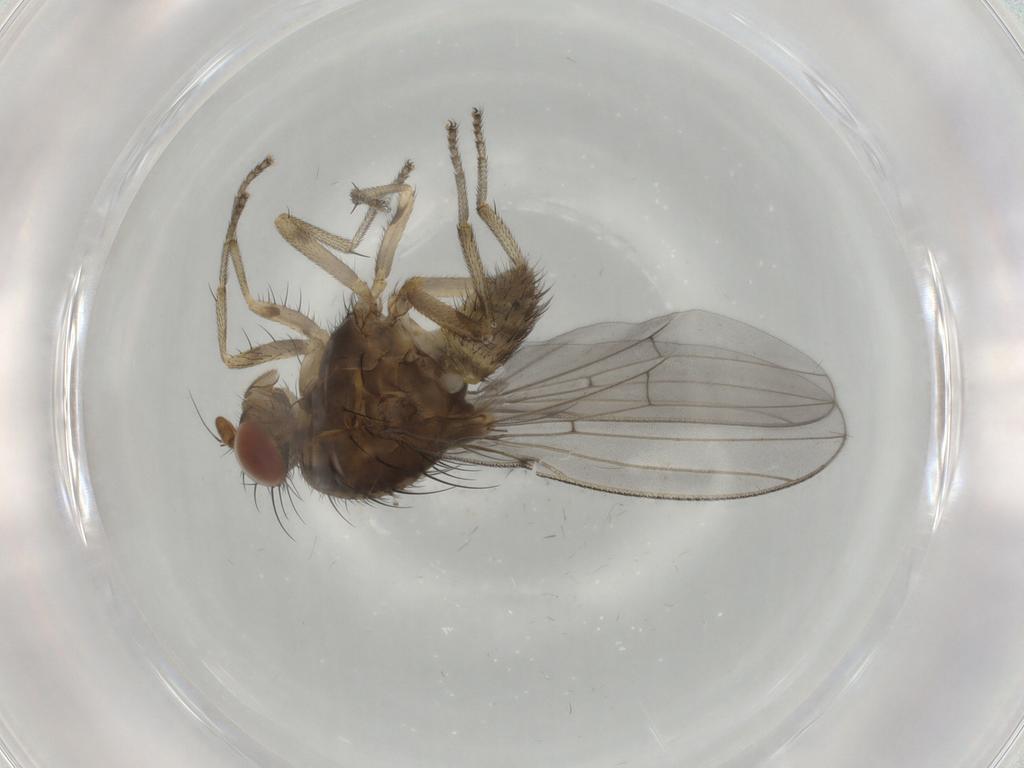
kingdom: Animalia
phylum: Arthropoda
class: Insecta
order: Diptera
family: Lauxaniidae
